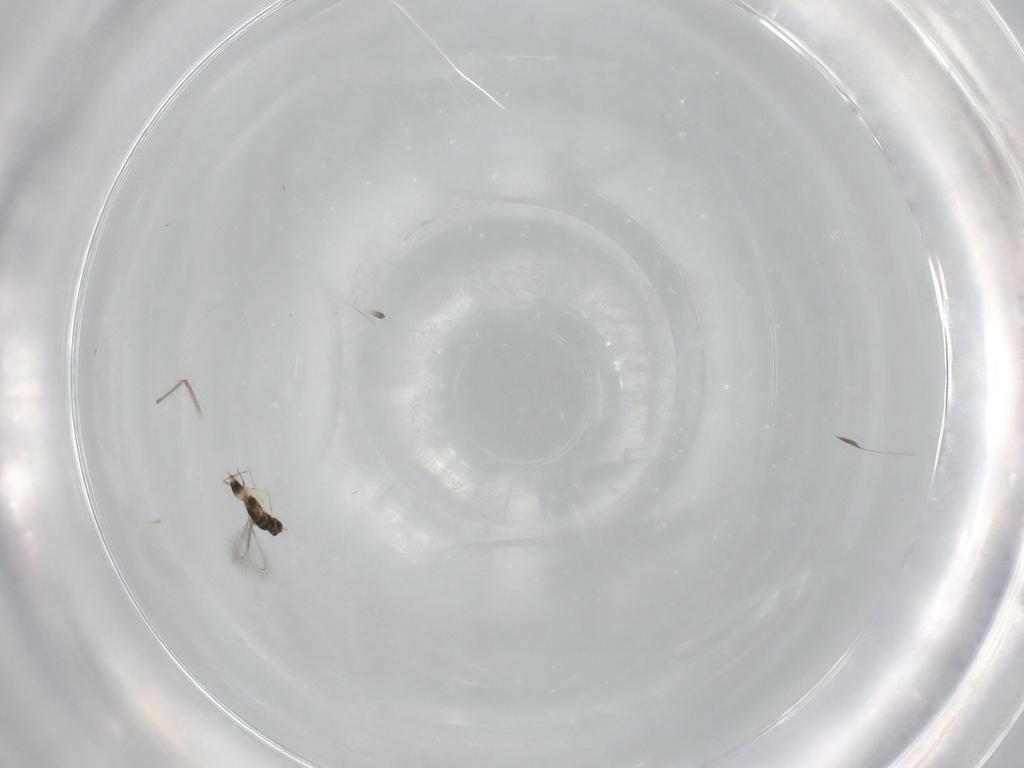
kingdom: Animalia
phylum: Arthropoda
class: Insecta
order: Hymenoptera
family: Mymaridae
